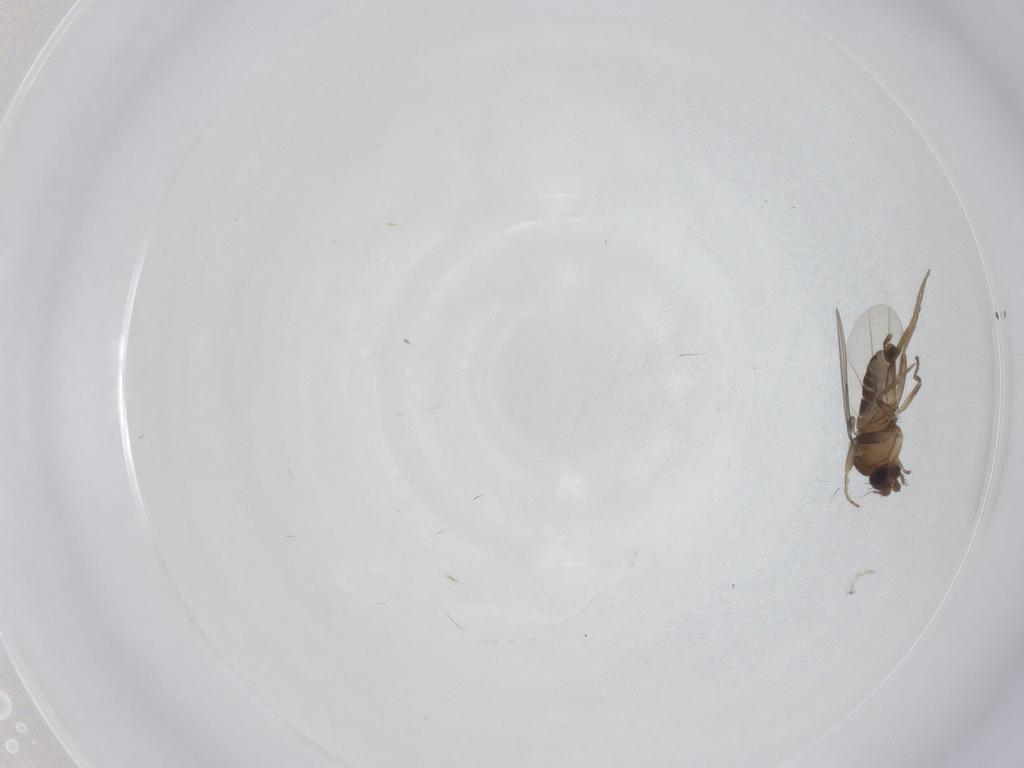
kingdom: Animalia
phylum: Arthropoda
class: Insecta
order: Diptera
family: Phoridae
